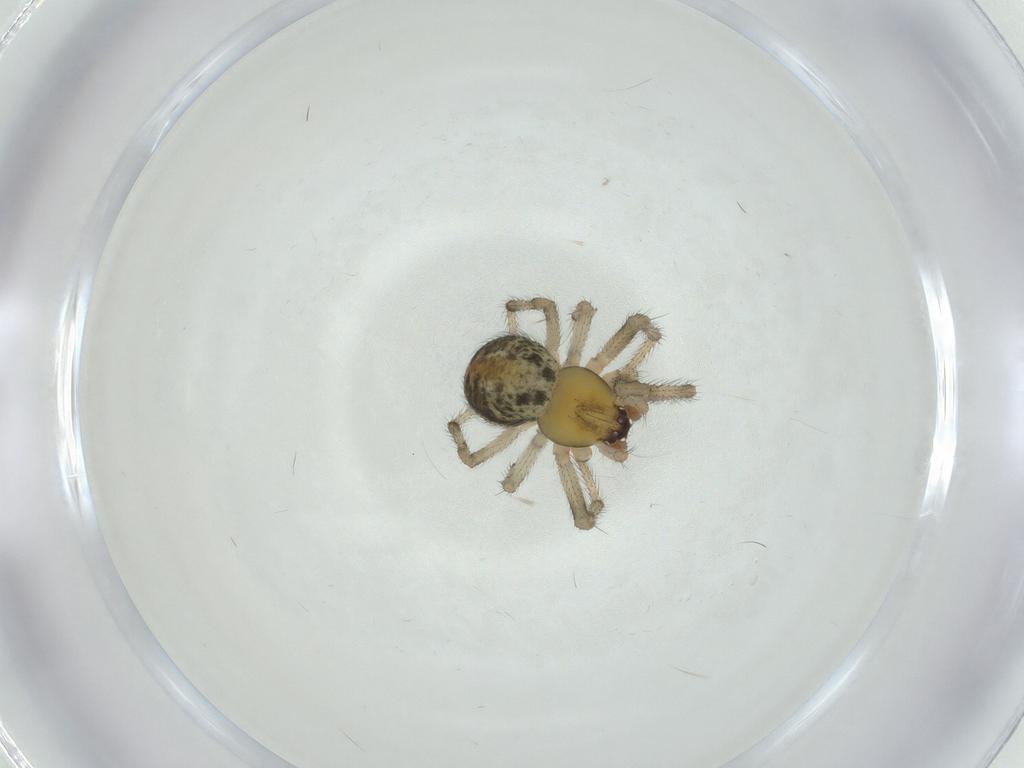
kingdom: Animalia
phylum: Arthropoda
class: Arachnida
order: Araneae
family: Theridiidae
